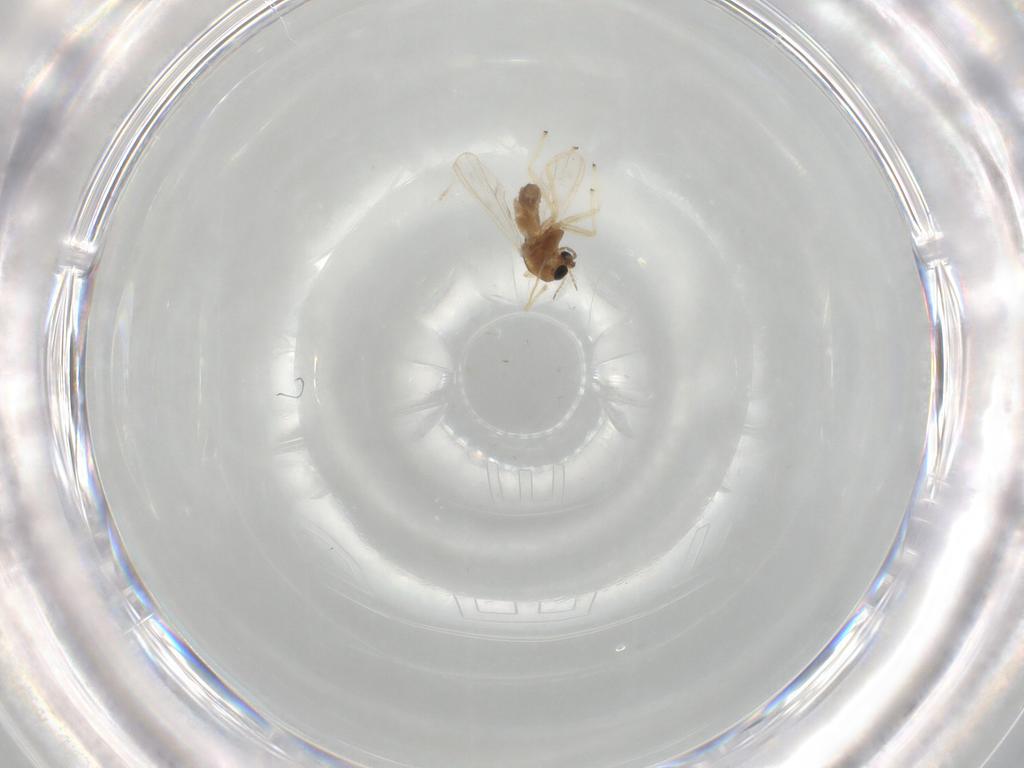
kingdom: Animalia
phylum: Arthropoda
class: Insecta
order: Diptera
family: Chironomidae
